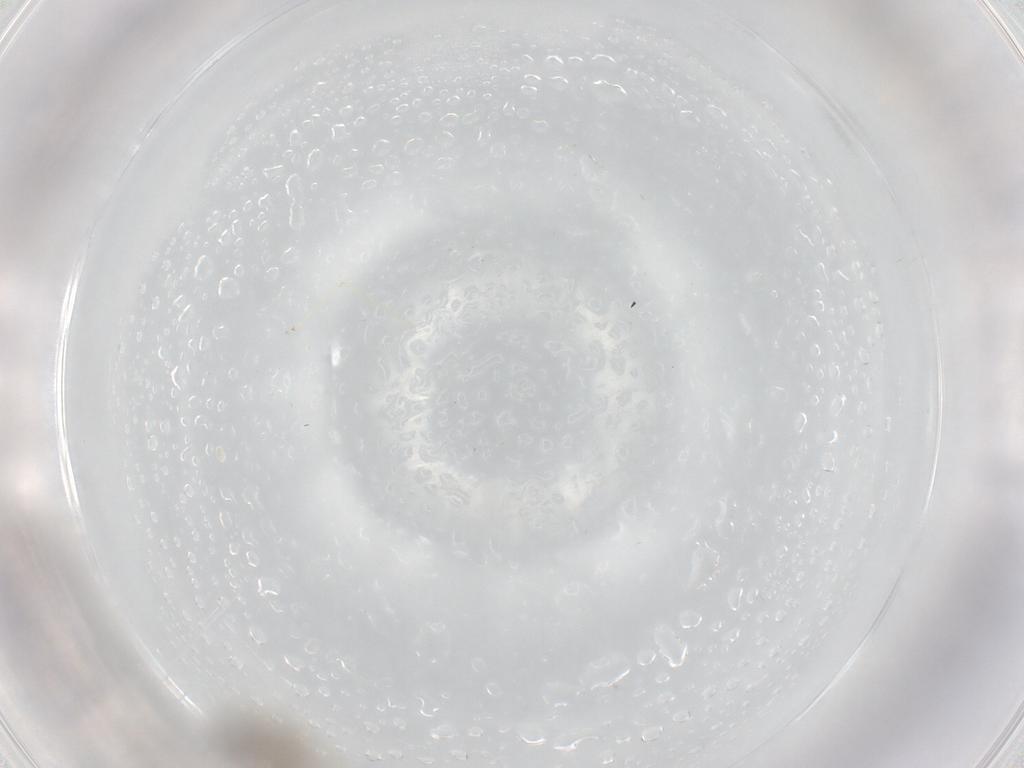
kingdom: Animalia
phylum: Arthropoda
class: Insecta
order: Diptera
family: Cecidomyiidae
